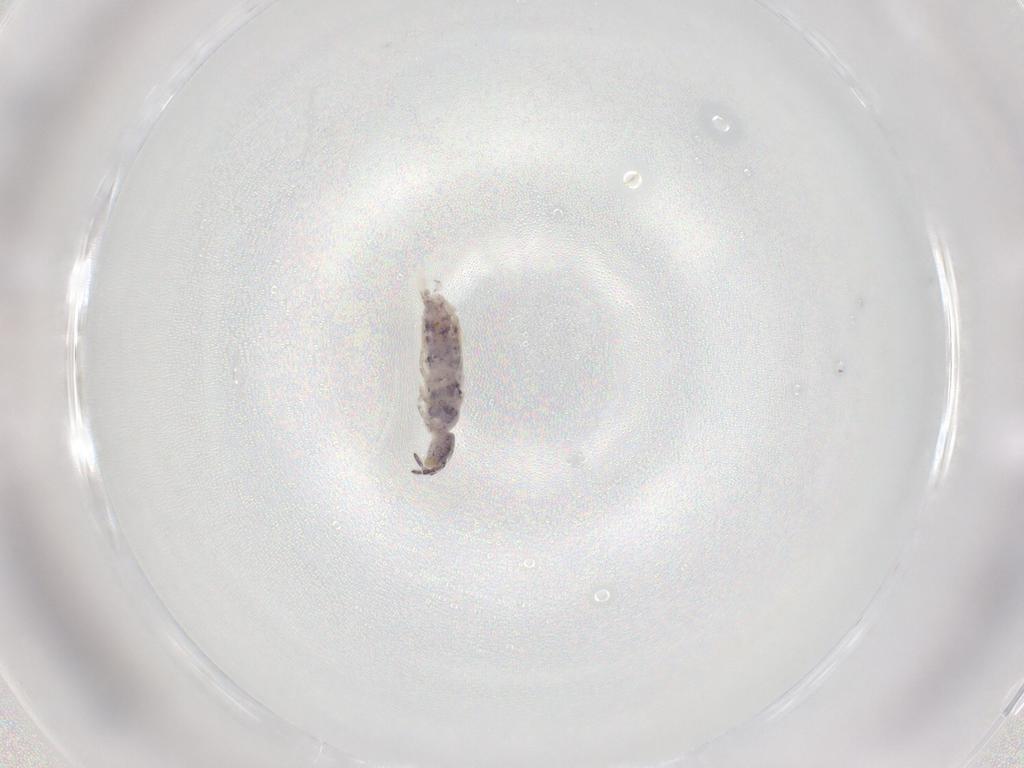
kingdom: Animalia
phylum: Arthropoda
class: Collembola
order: Entomobryomorpha
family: Isotomidae
